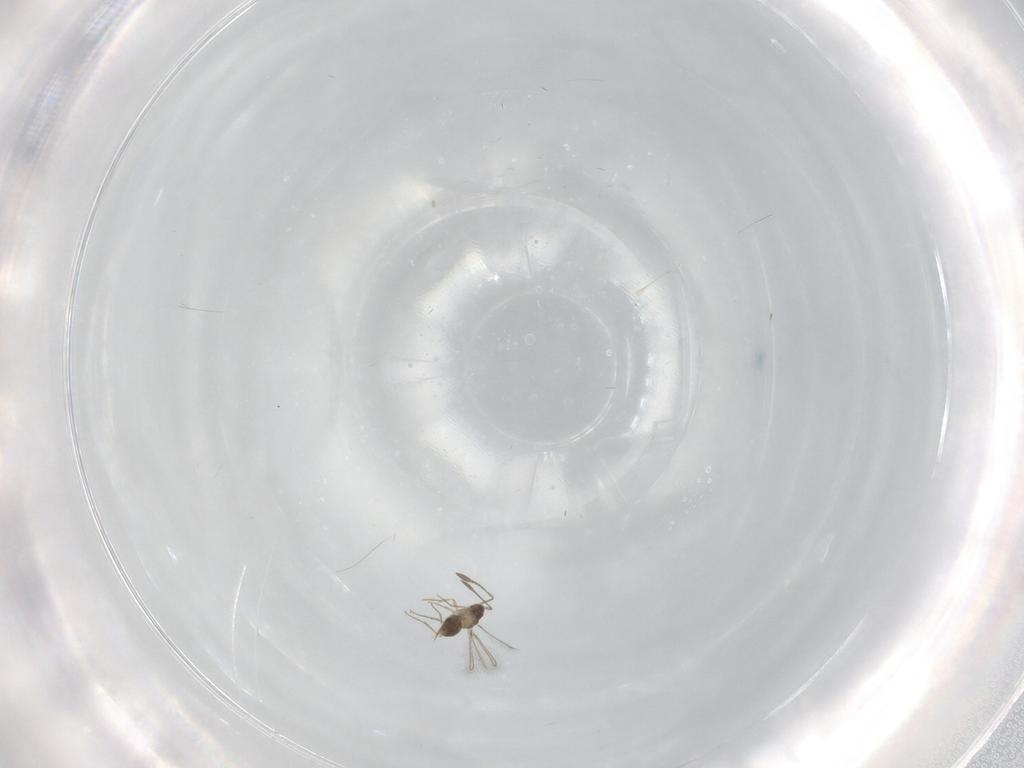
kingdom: Animalia
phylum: Arthropoda
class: Insecta
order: Hymenoptera
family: Mymaridae
